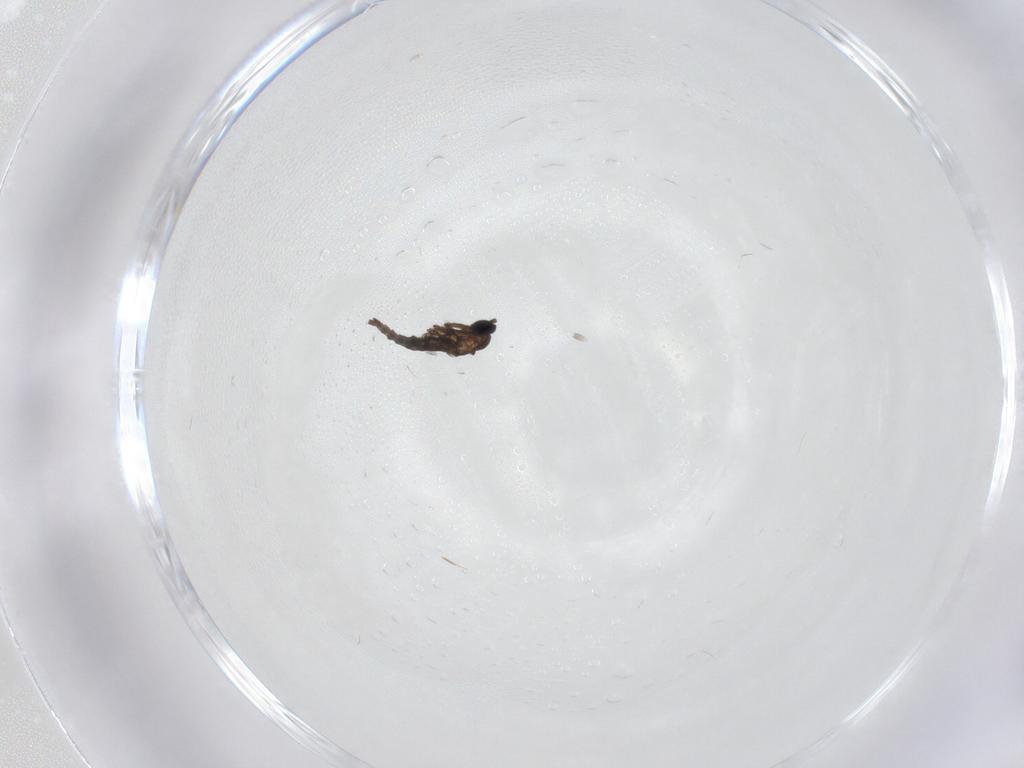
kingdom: Animalia
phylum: Arthropoda
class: Insecta
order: Diptera
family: Sciaridae
